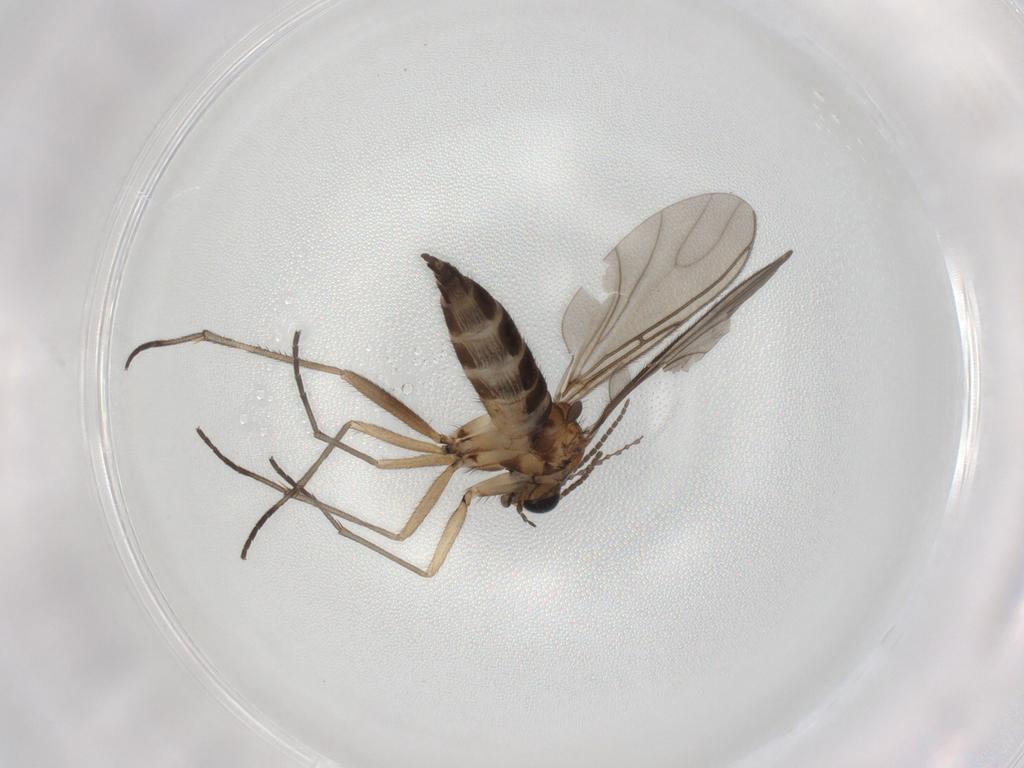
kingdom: Animalia
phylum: Arthropoda
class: Insecta
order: Diptera
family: Cecidomyiidae
